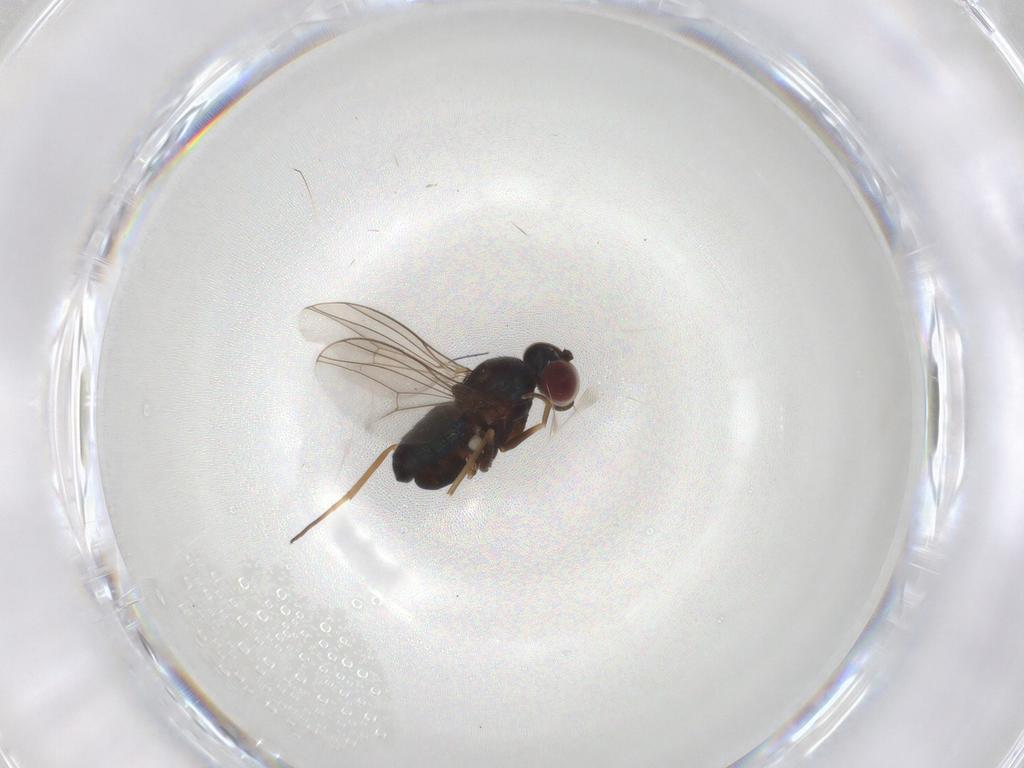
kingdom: Animalia
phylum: Arthropoda
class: Insecta
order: Diptera
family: Dolichopodidae
